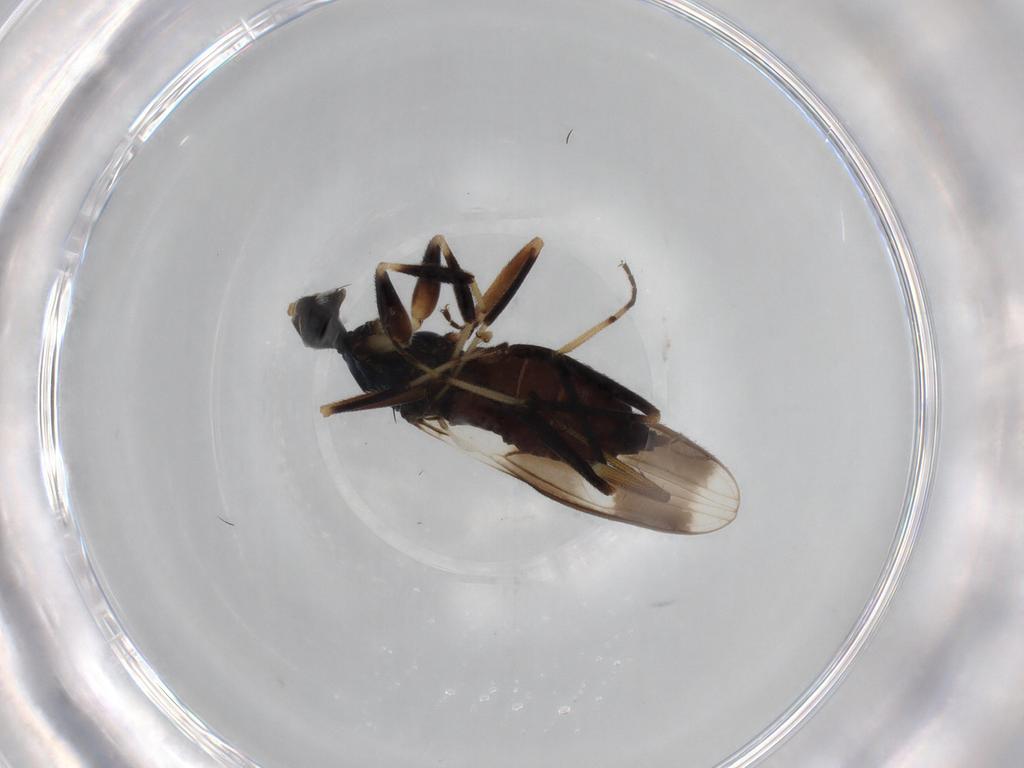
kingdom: Animalia
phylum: Arthropoda
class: Insecta
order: Diptera
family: Hybotidae
